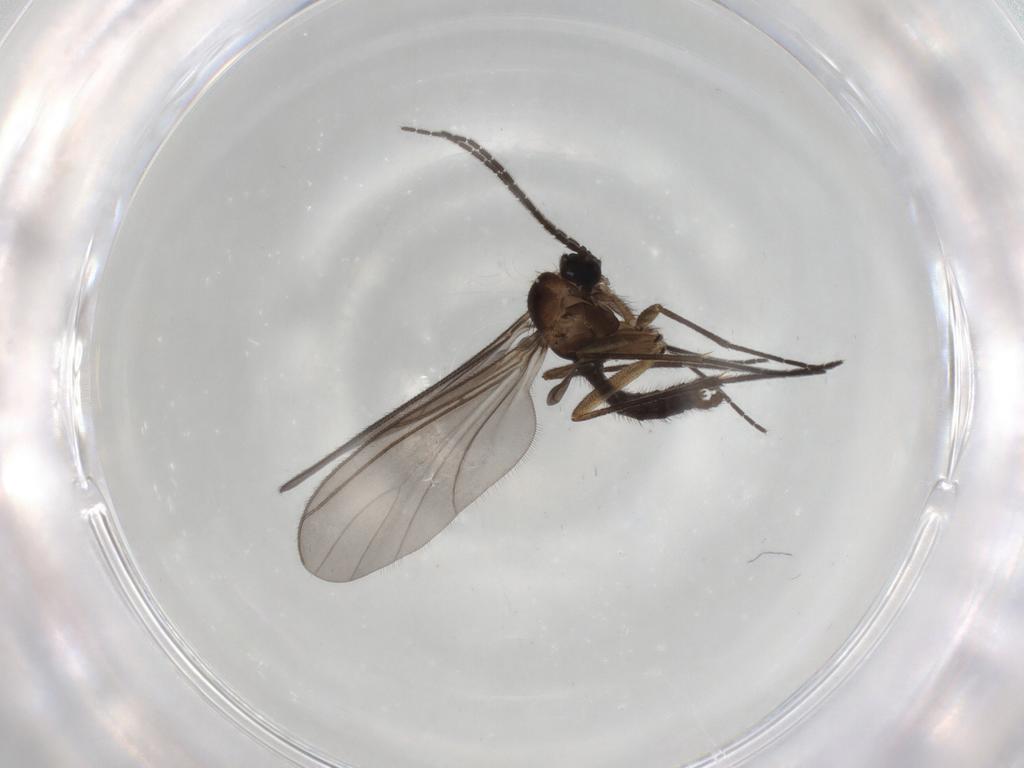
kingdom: Animalia
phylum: Arthropoda
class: Insecta
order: Diptera
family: Sciaridae
